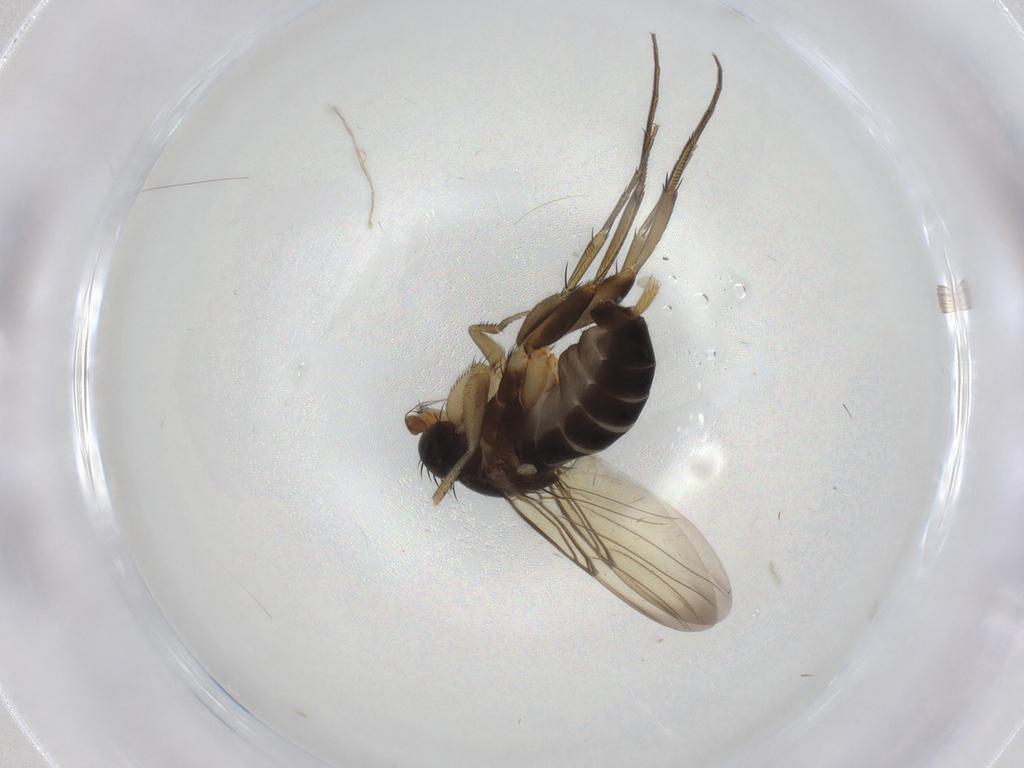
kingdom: Animalia
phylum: Arthropoda
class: Insecta
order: Diptera
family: Phoridae
